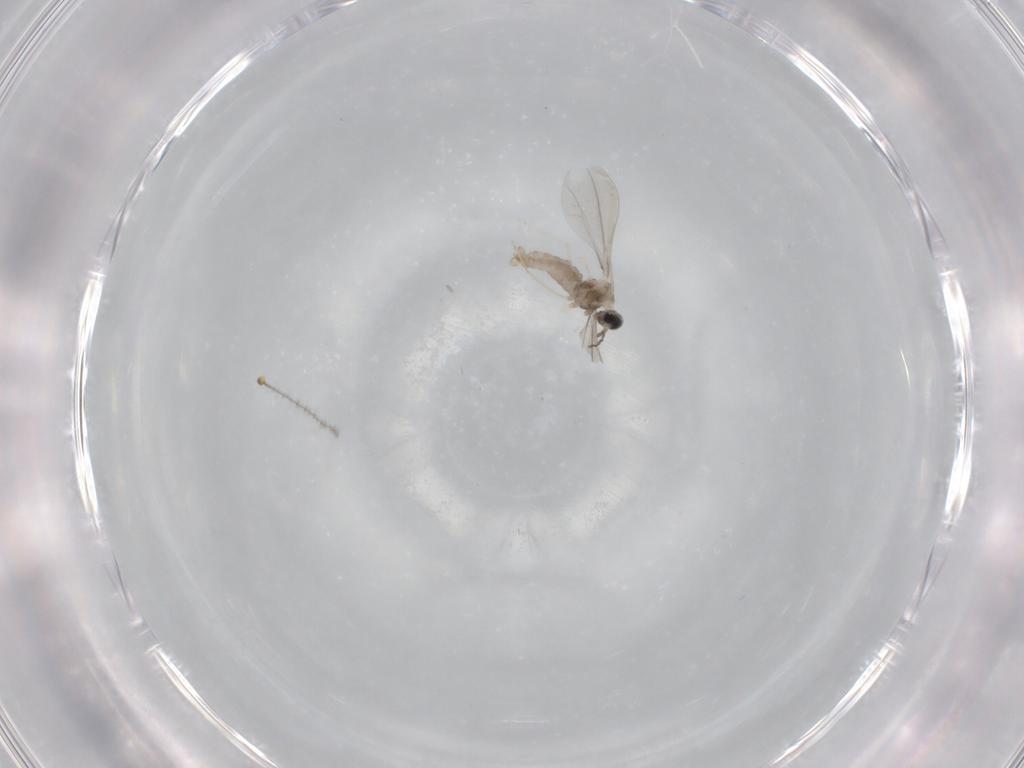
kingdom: Animalia
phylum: Arthropoda
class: Insecta
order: Diptera
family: Cecidomyiidae
